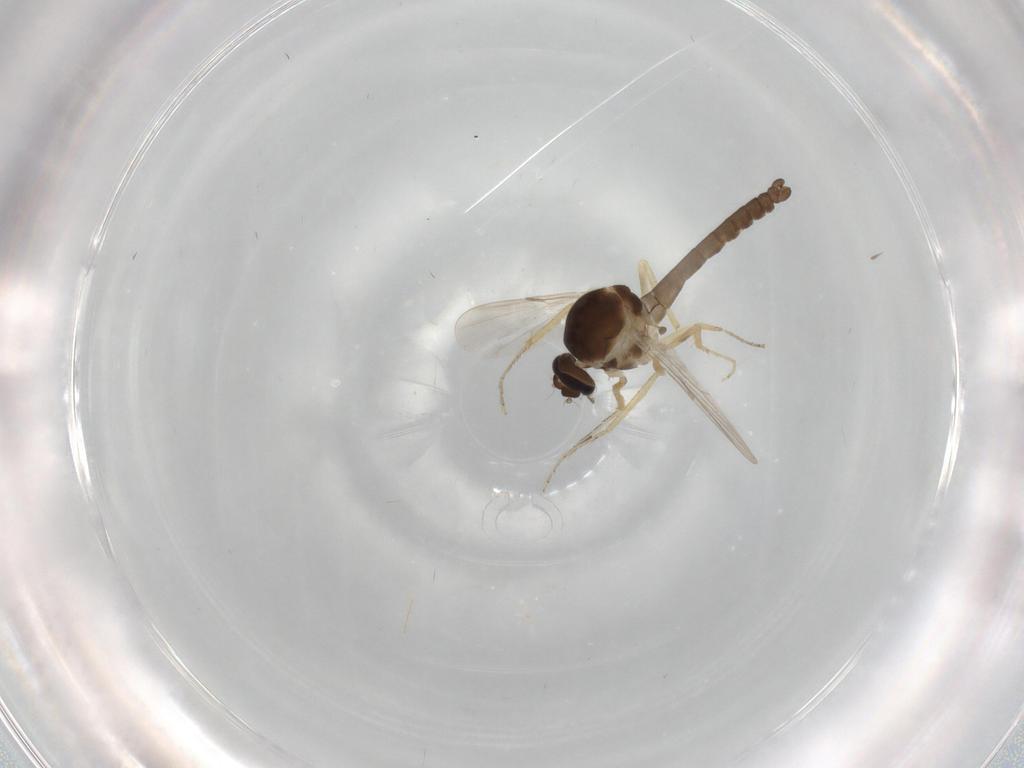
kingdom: Animalia
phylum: Arthropoda
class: Insecta
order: Diptera
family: Ceratopogonidae
